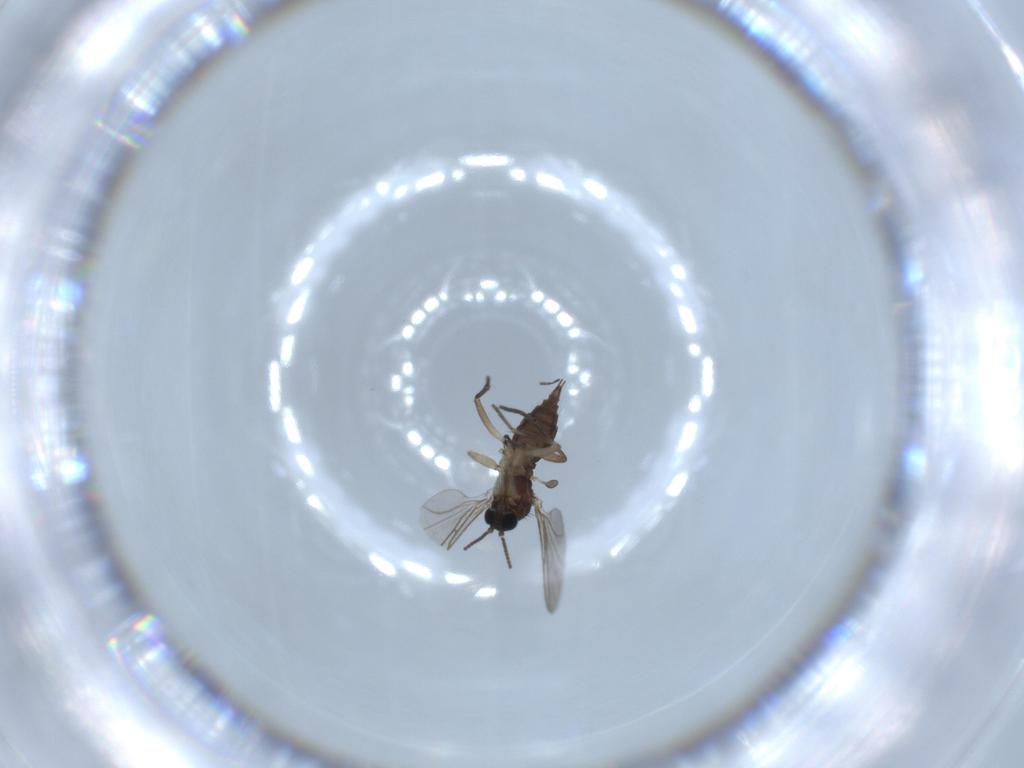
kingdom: Animalia
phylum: Arthropoda
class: Insecta
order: Diptera
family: Sciaridae
